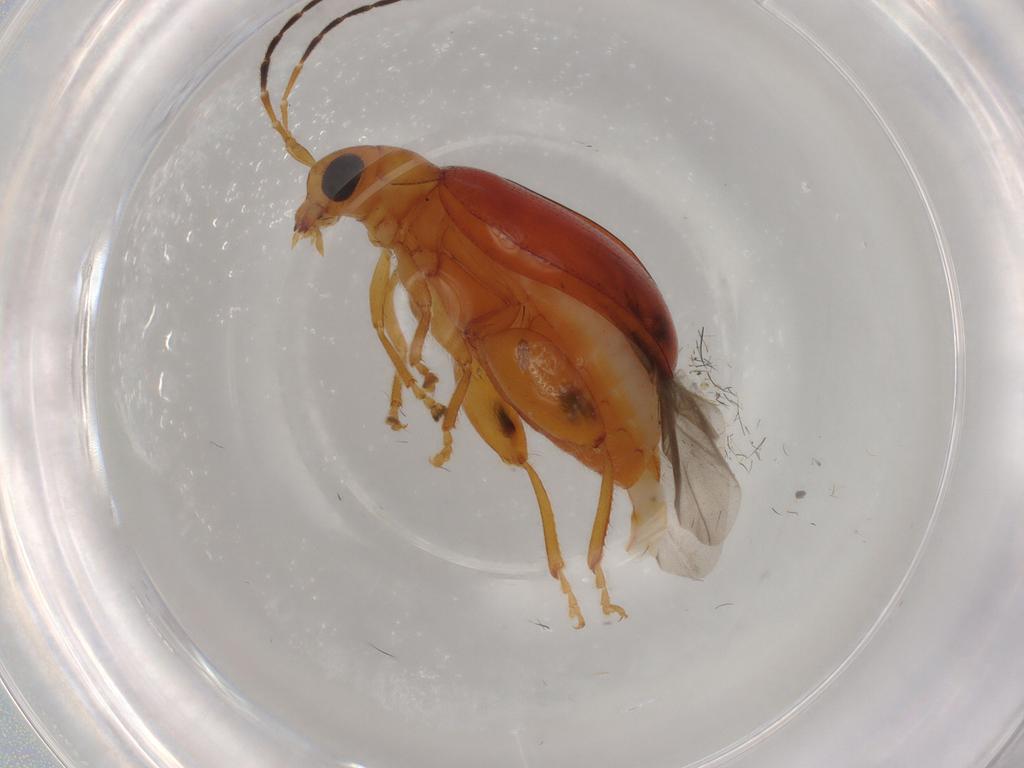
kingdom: Animalia
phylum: Arthropoda
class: Insecta
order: Coleoptera
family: Chrysomelidae
